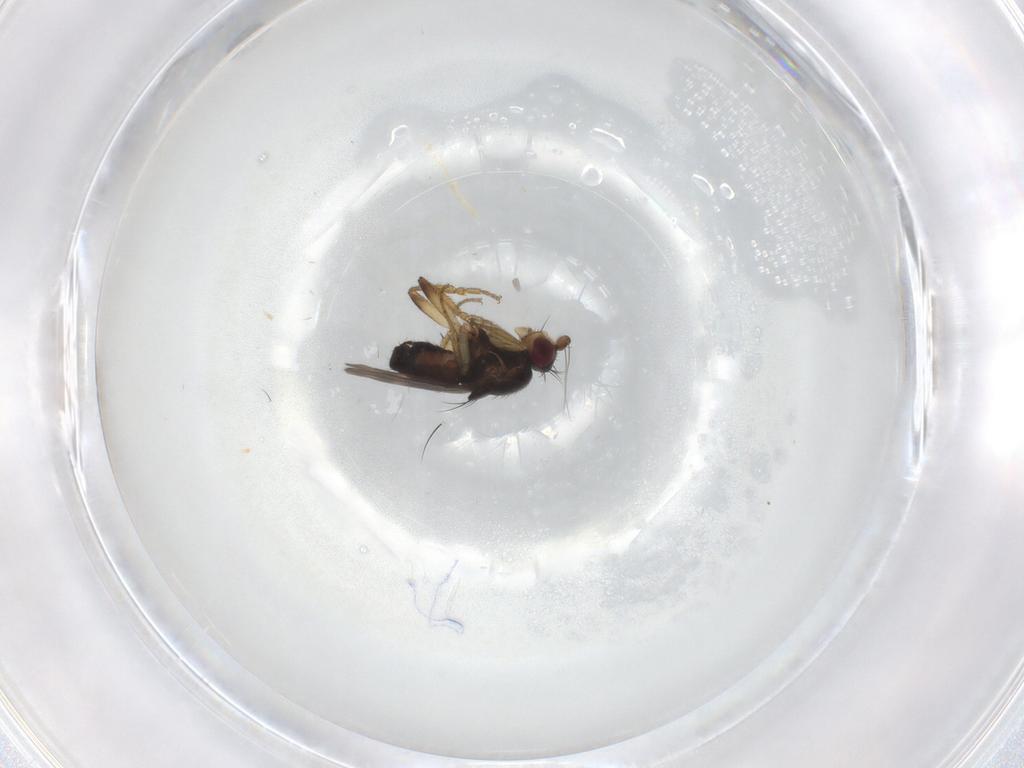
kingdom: Animalia
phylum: Arthropoda
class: Insecta
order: Diptera
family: Sphaeroceridae
